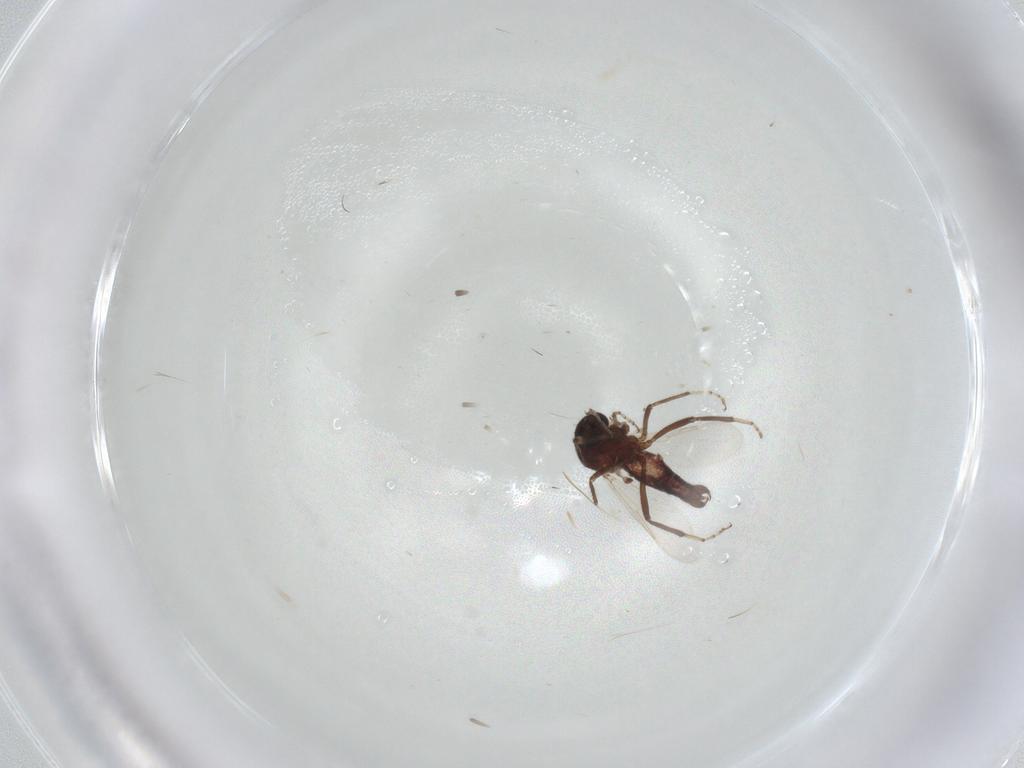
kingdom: Animalia
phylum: Arthropoda
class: Insecta
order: Diptera
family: Ceratopogonidae
